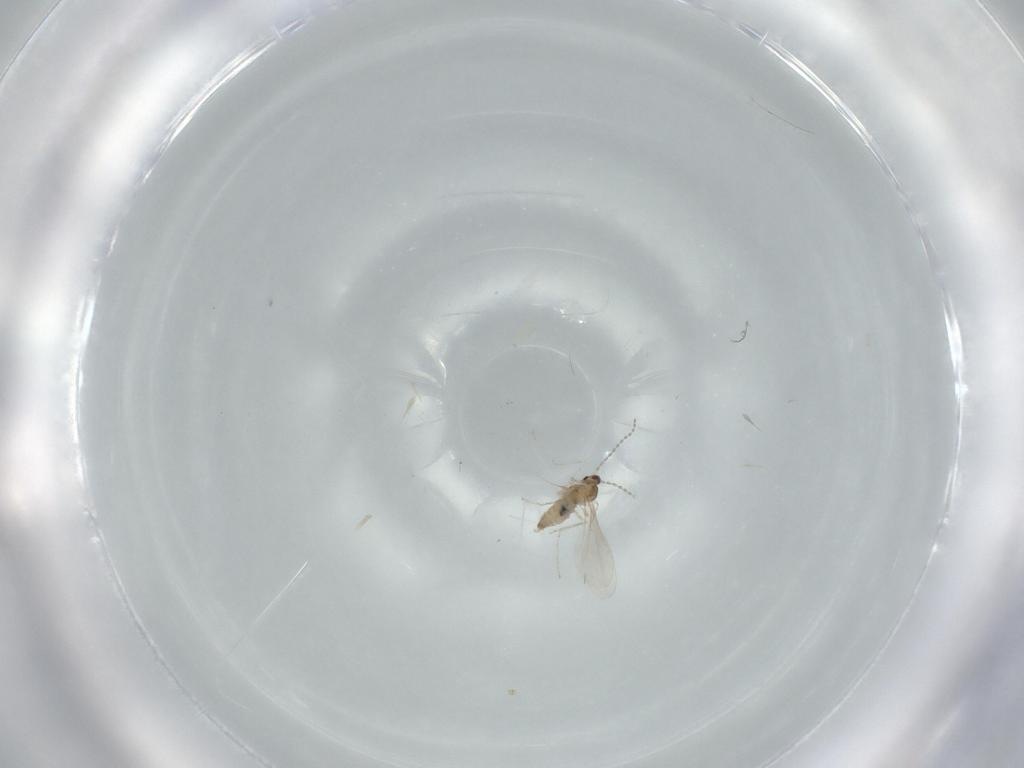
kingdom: Animalia
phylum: Arthropoda
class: Insecta
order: Diptera
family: Cecidomyiidae
